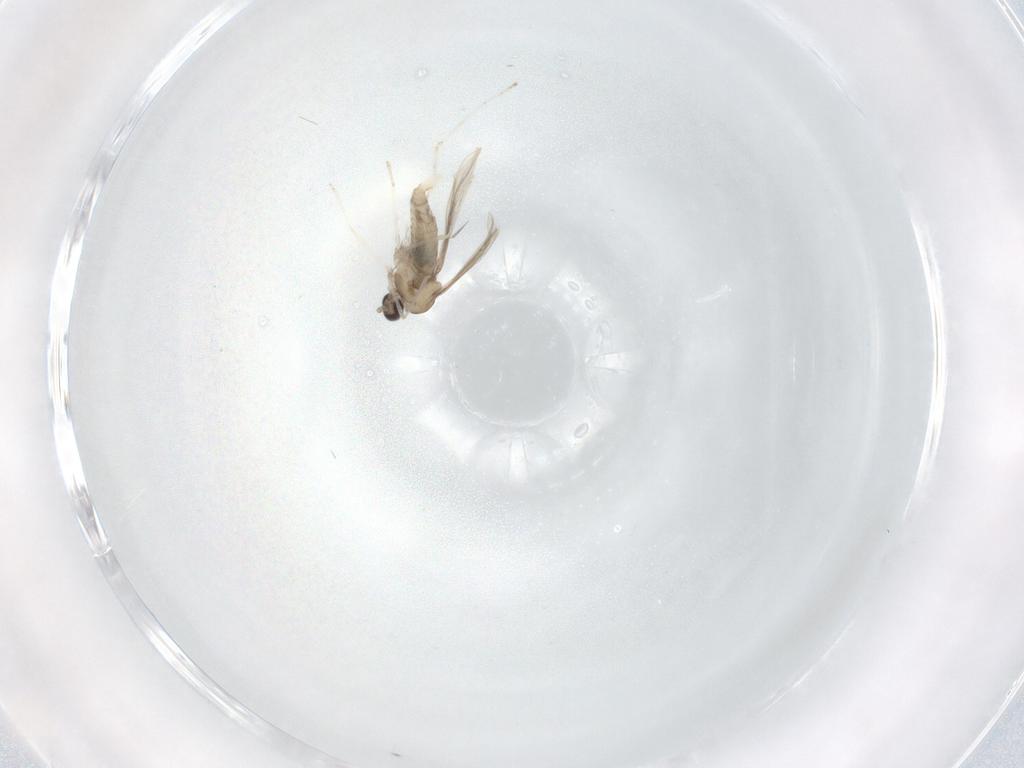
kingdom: Animalia
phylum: Arthropoda
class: Insecta
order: Diptera
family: Cecidomyiidae
